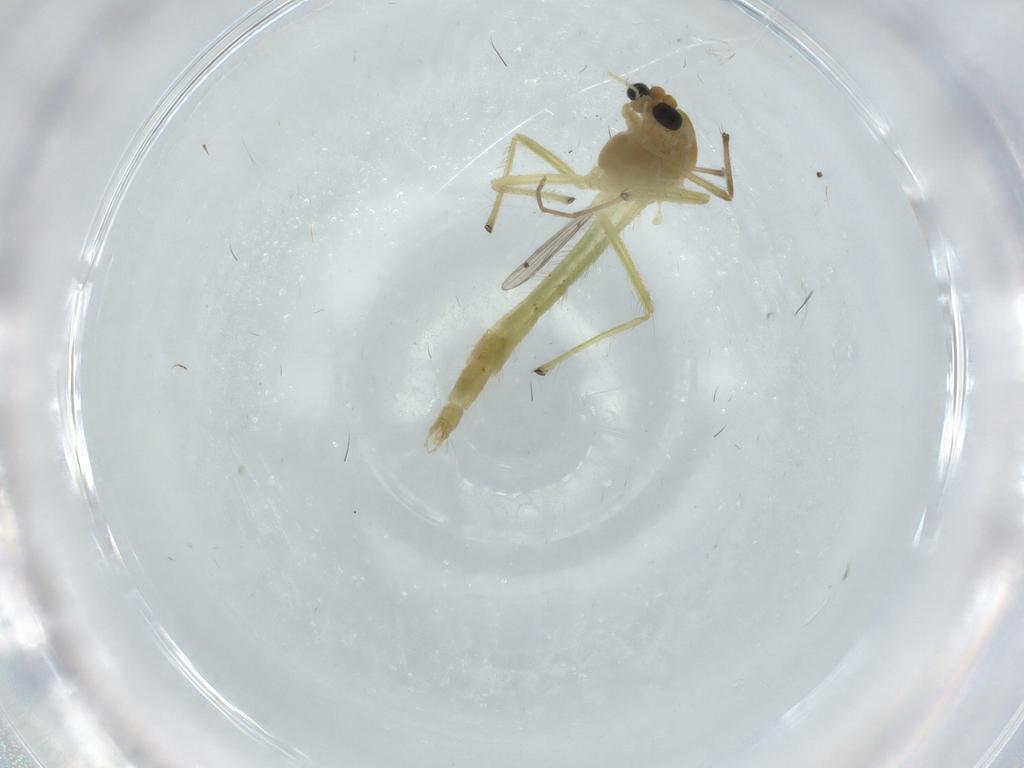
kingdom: Animalia
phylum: Arthropoda
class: Insecta
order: Diptera
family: Chironomidae
